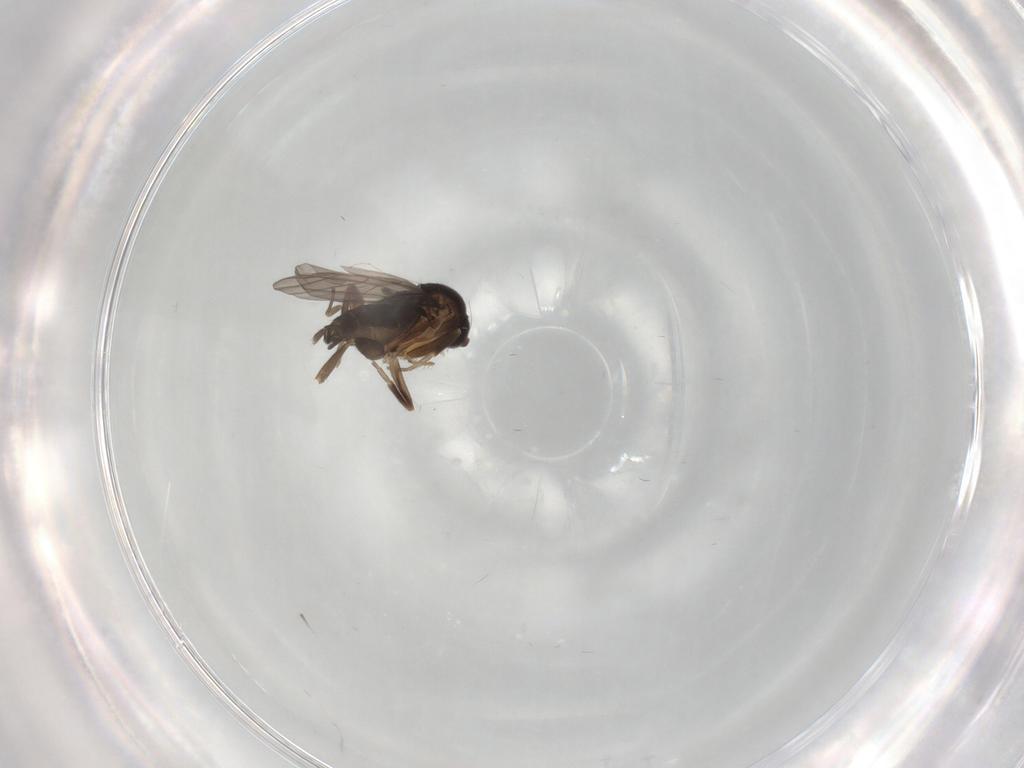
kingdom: Animalia
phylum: Arthropoda
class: Insecta
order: Diptera
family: Phoridae
